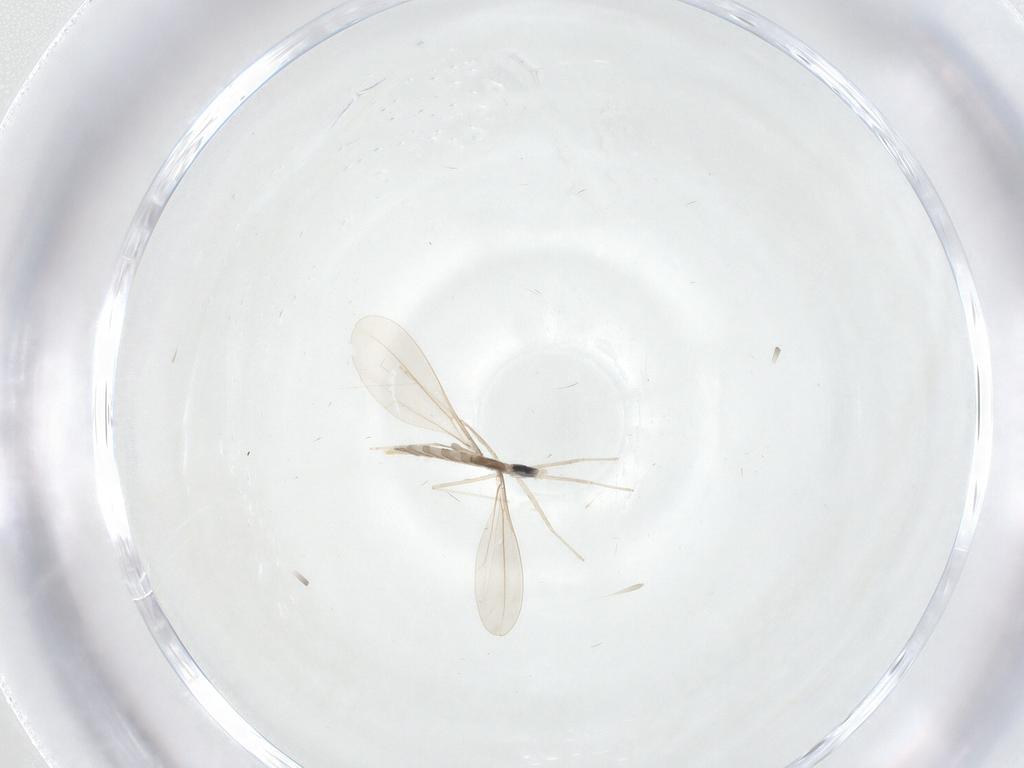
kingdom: Animalia
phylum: Arthropoda
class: Insecta
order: Diptera
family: Cecidomyiidae
